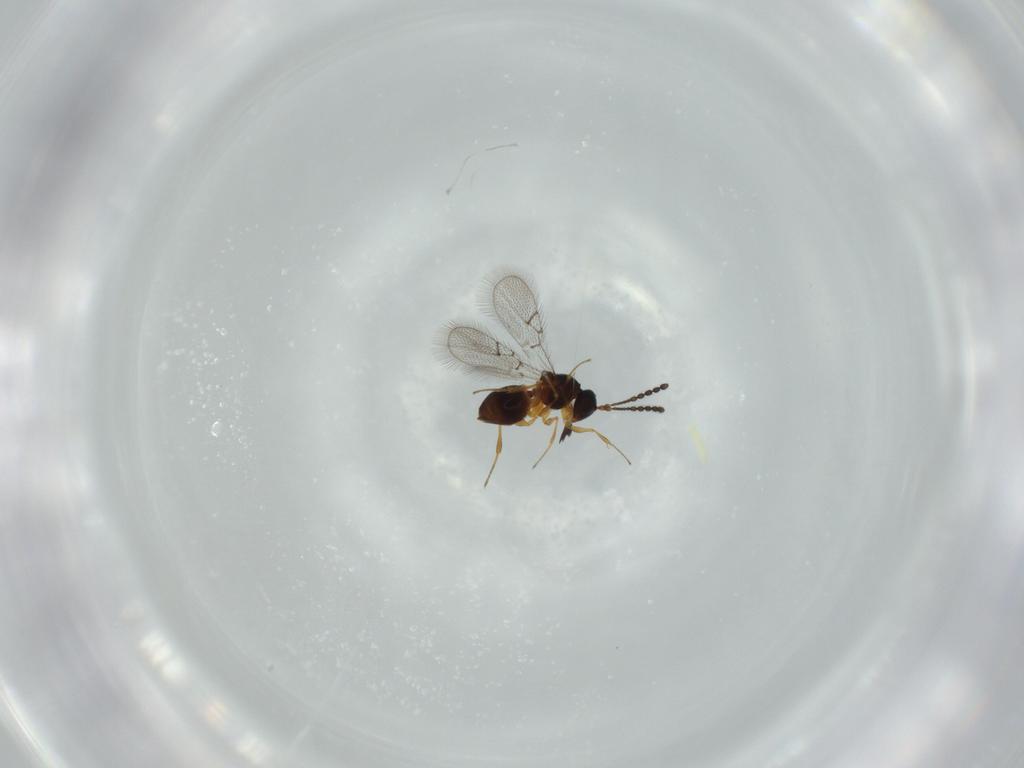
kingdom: Animalia
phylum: Arthropoda
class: Insecta
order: Hymenoptera
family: Figitidae
